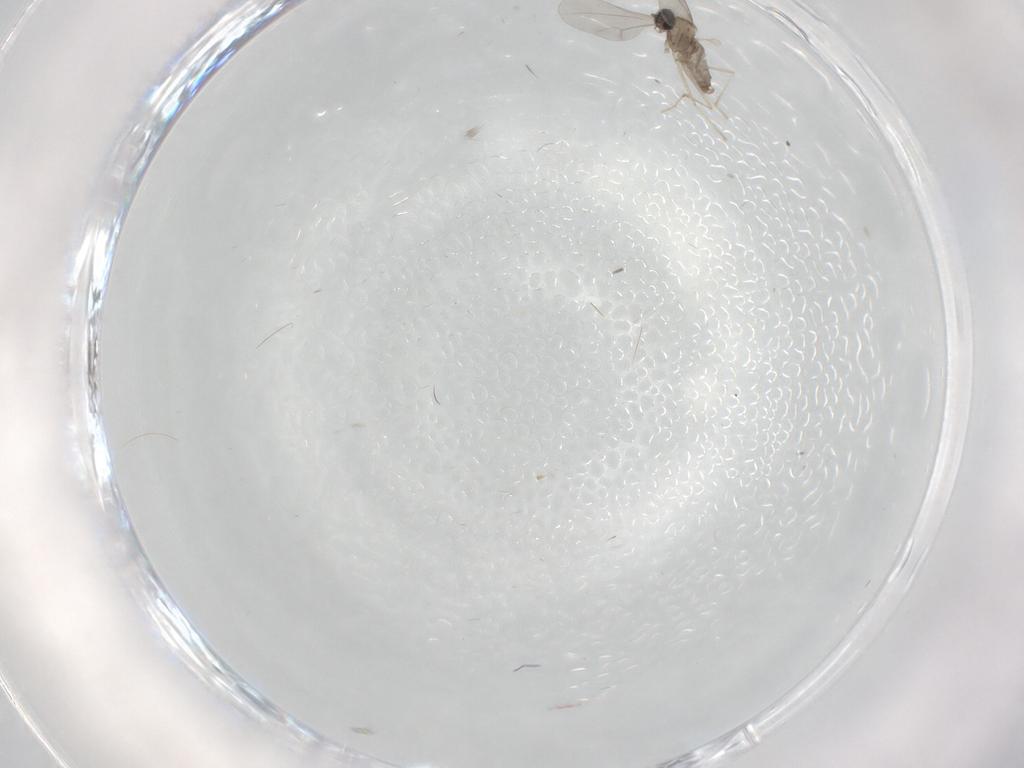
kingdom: Animalia
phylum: Arthropoda
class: Insecta
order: Diptera
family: Cecidomyiidae
